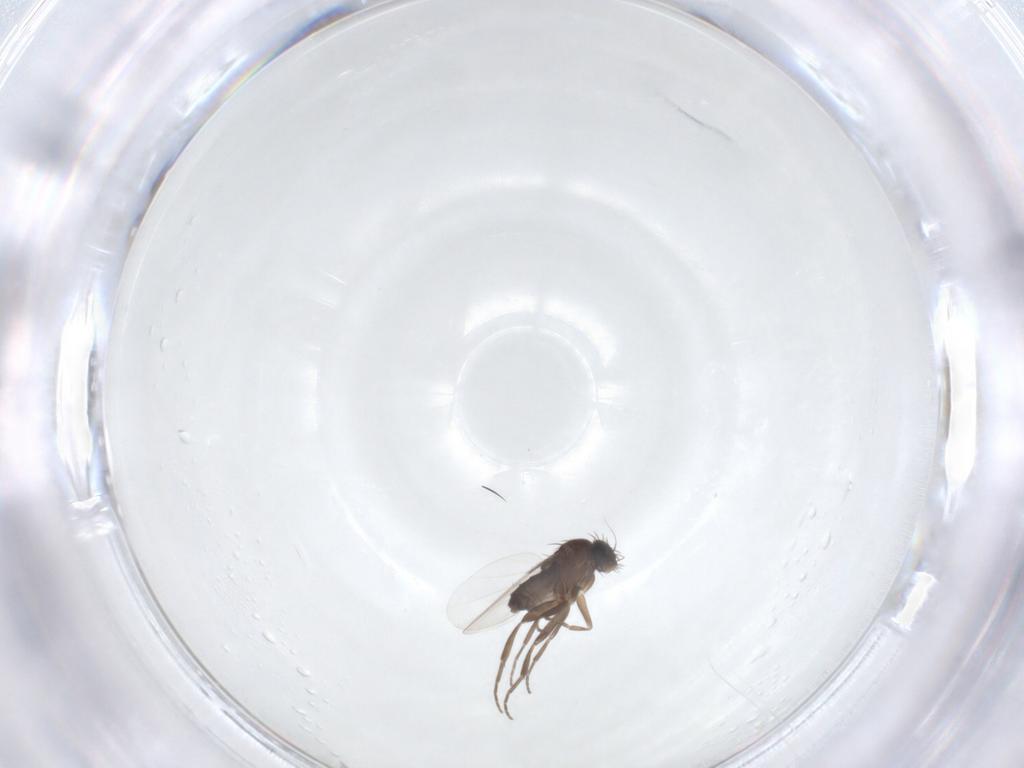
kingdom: Animalia
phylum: Arthropoda
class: Insecta
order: Diptera
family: Phoridae
